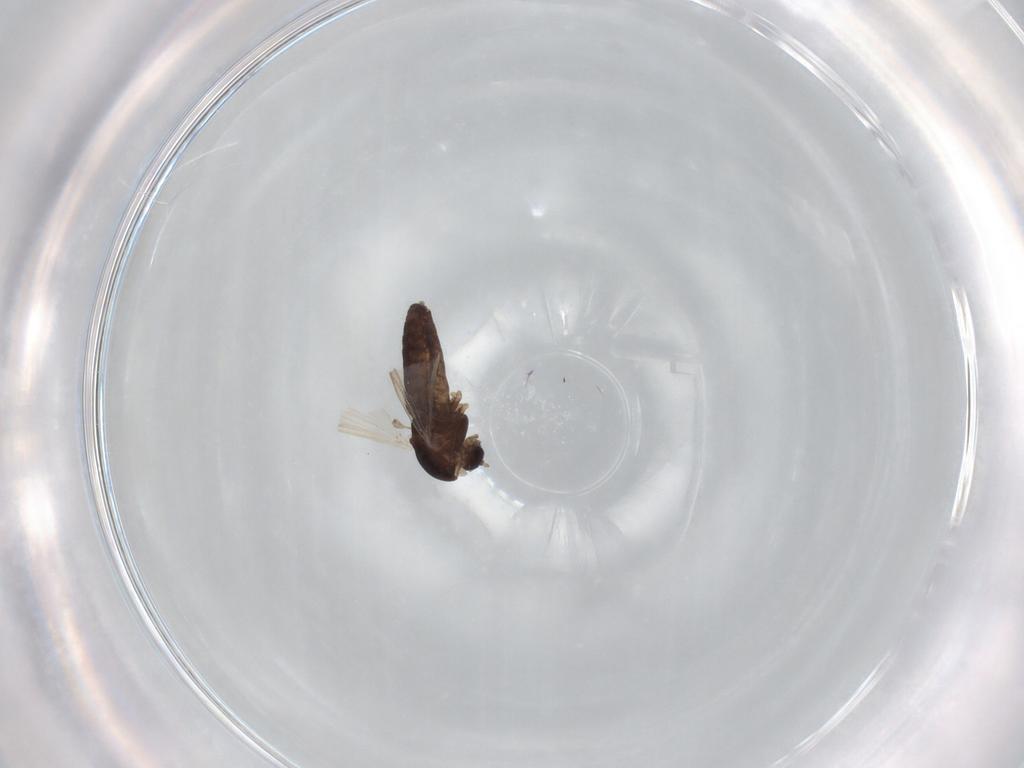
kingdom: Animalia
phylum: Arthropoda
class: Insecta
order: Diptera
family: Chironomidae
